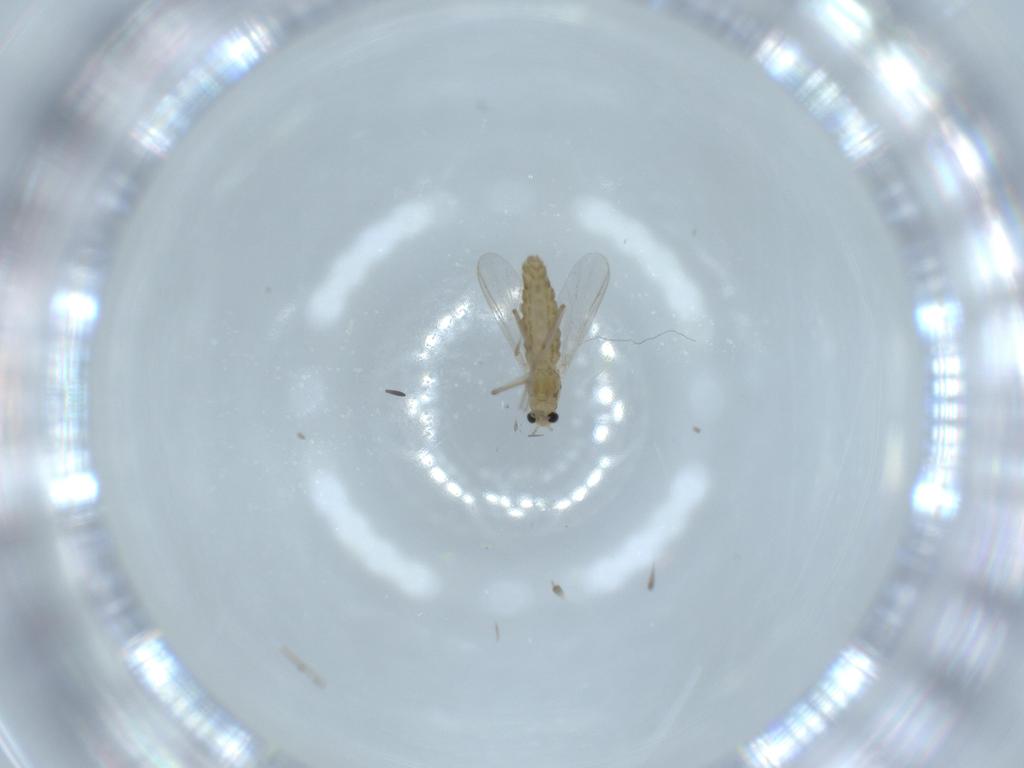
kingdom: Animalia
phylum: Arthropoda
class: Insecta
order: Diptera
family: Chironomidae
